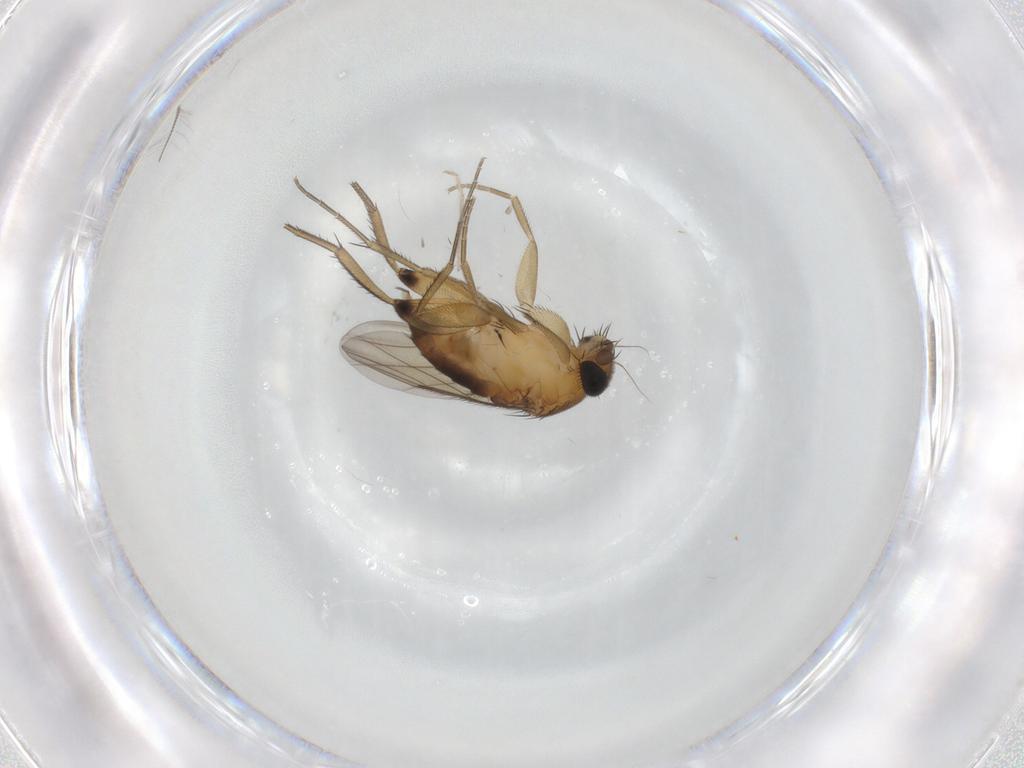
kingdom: Animalia
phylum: Arthropoda
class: Insecta
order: Diptera
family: Phoridae
